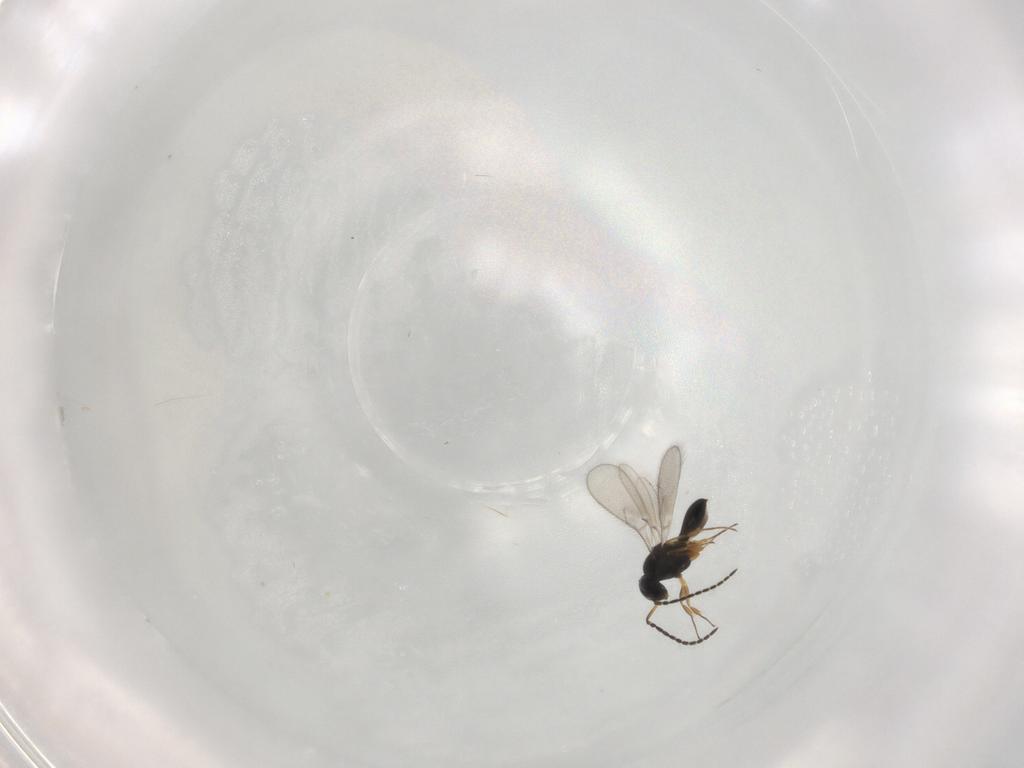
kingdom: Animalia
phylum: Arthropoda
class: Insecta
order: Hymenoptera
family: Scelionidae
